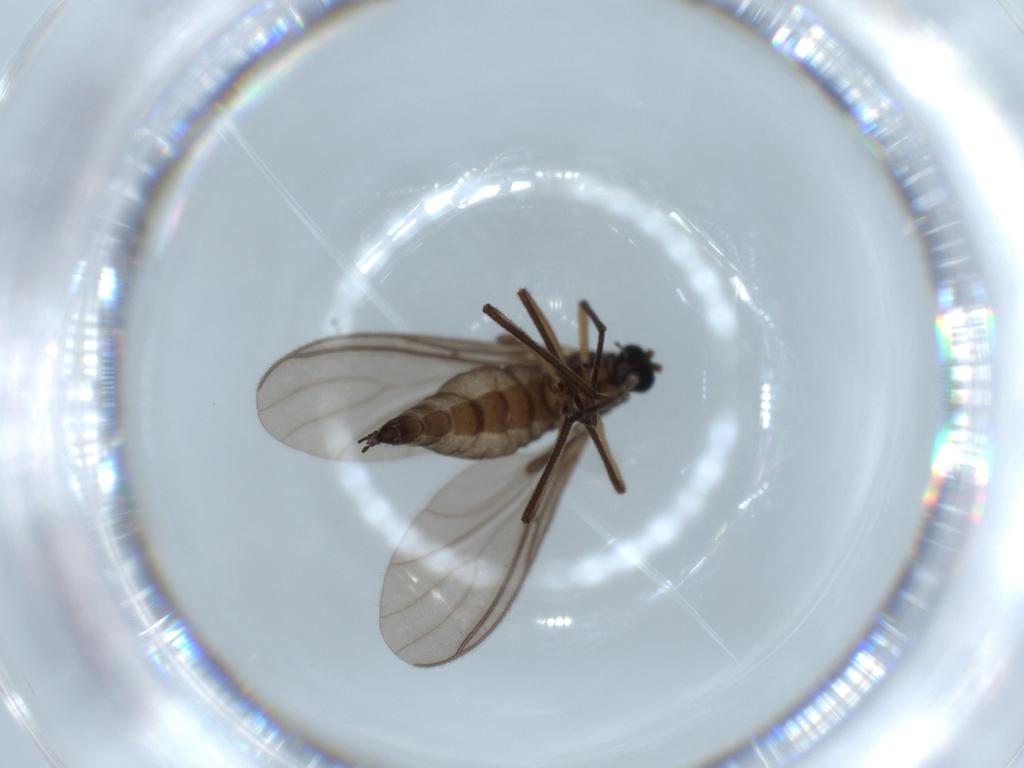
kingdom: Animalia
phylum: Arthropoda
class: Insecta
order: Diptera
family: Sciaridae
